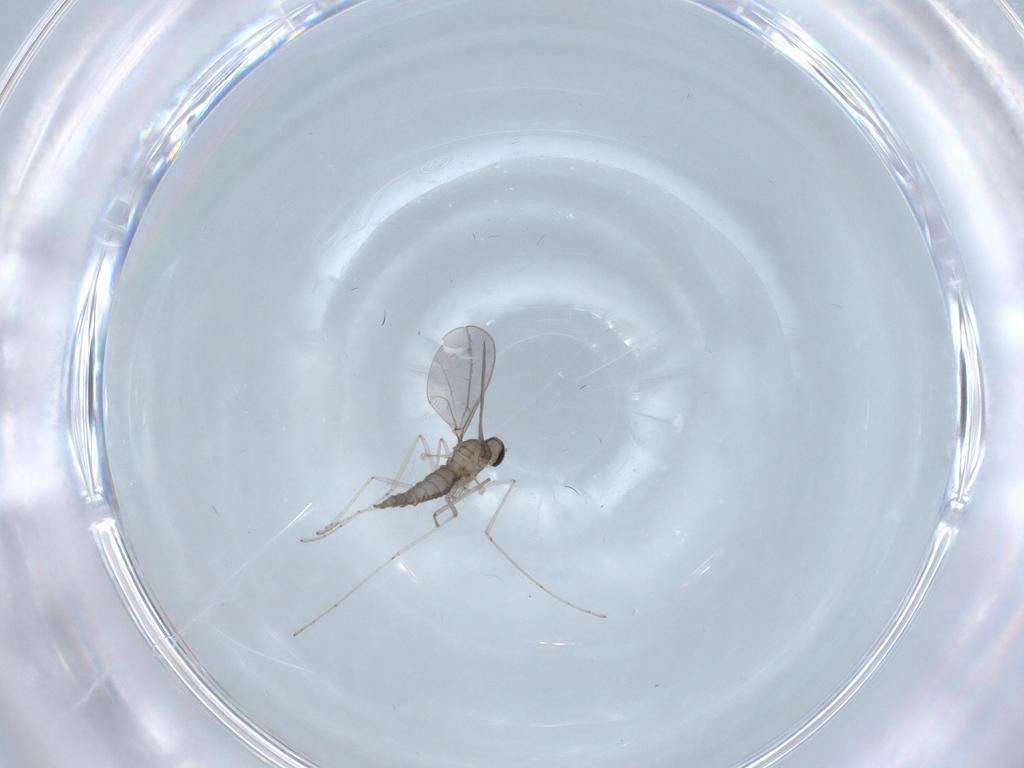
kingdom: Animalia
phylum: Arthropoda
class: Insecta
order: Diptera
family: Cecidomyiidae
